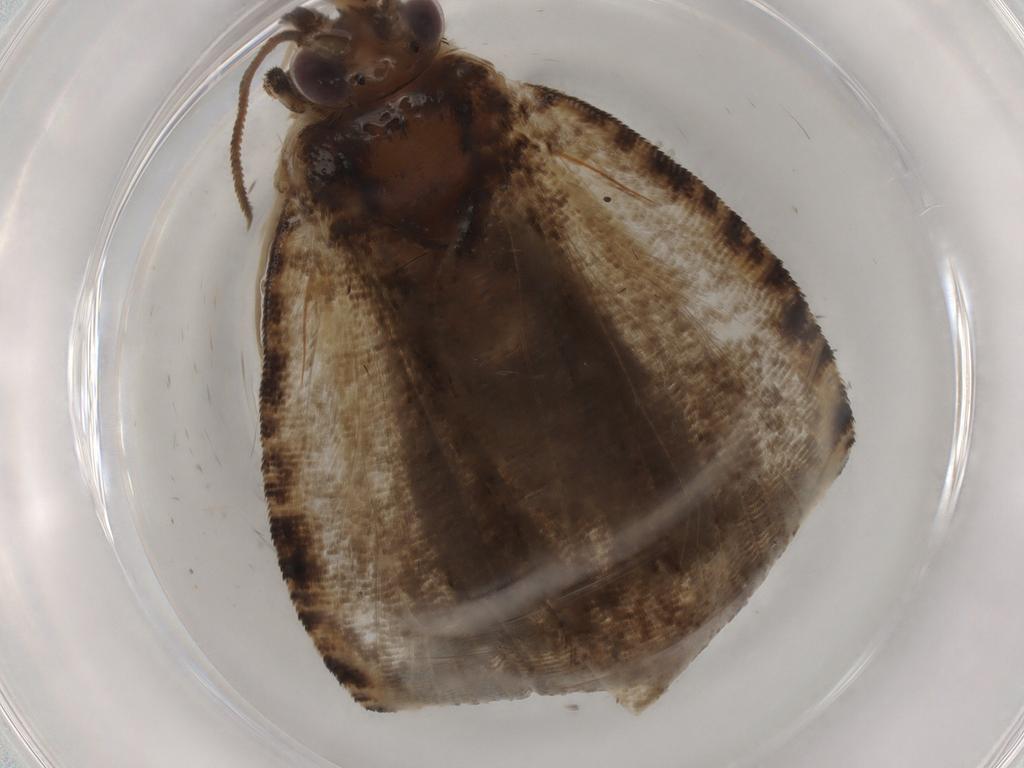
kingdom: Animalia
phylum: Arthropoda
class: Insecta
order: Lepidoptera
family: Tortricidae
